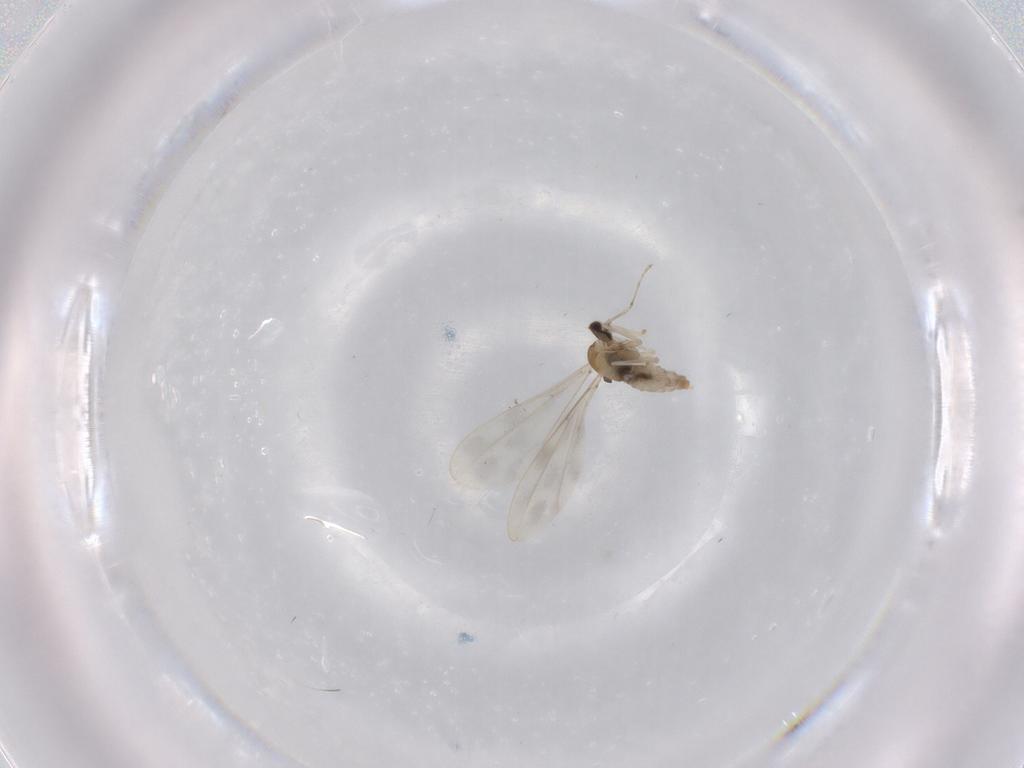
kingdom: Animalia
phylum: Arthropoda
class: Insecta
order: Diptera
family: Cecidomyiidae
